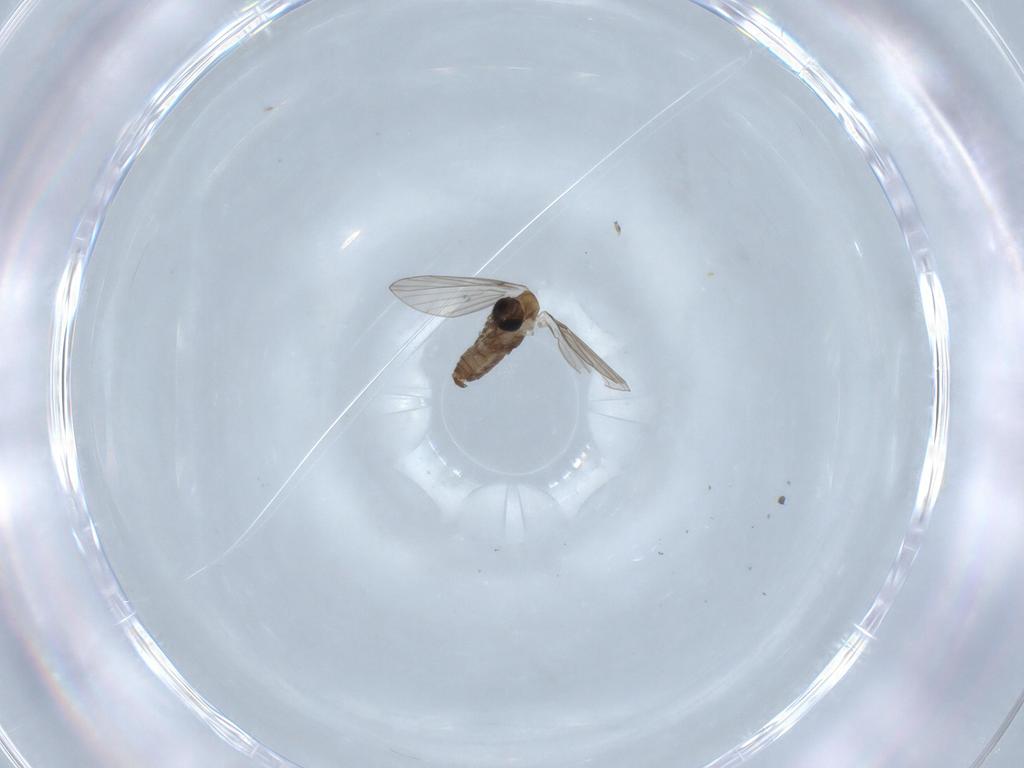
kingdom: Animalia
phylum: Arthropoda
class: Insecta
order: Diptera
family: Psychodidae
